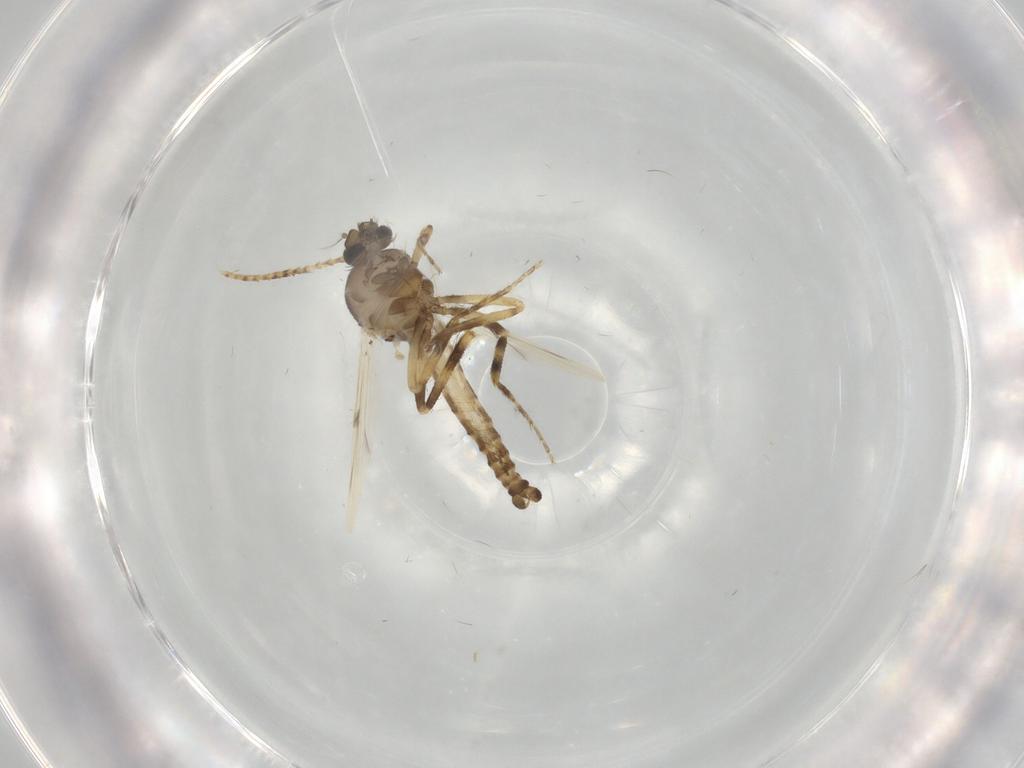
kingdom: Animalia
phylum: Arthropoda
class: Insecta
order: Diptera
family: Ceratopogonidae
